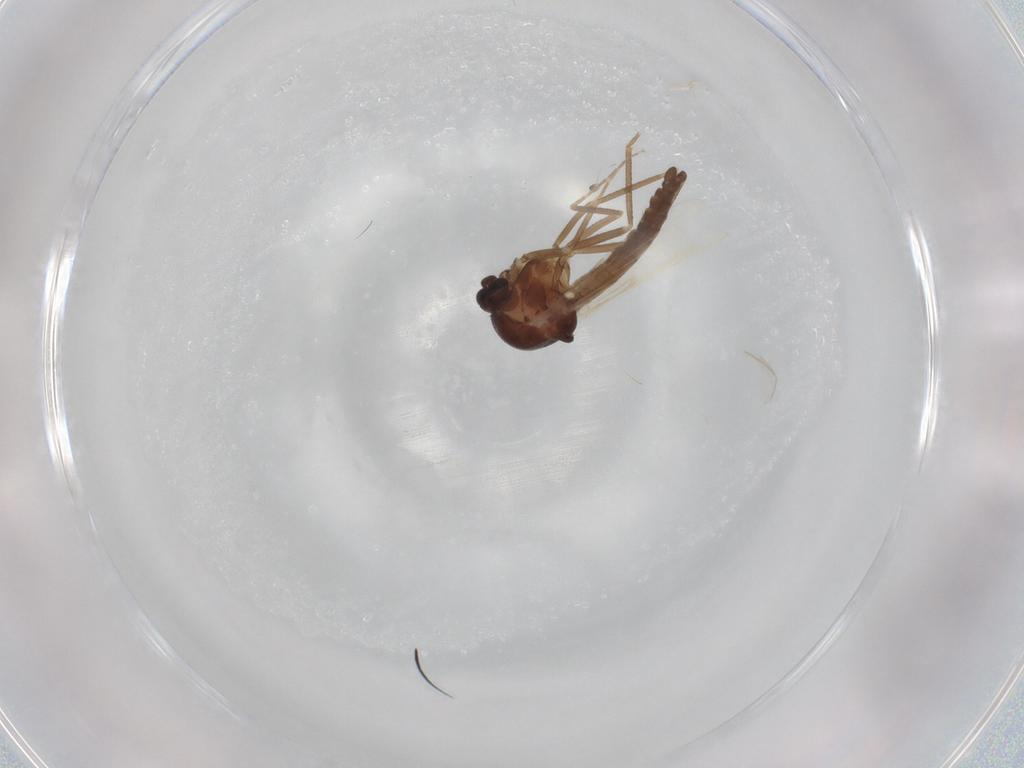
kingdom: Animalia
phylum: Arthropoda
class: Insecta
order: Diptera
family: Ceratopogonidae
